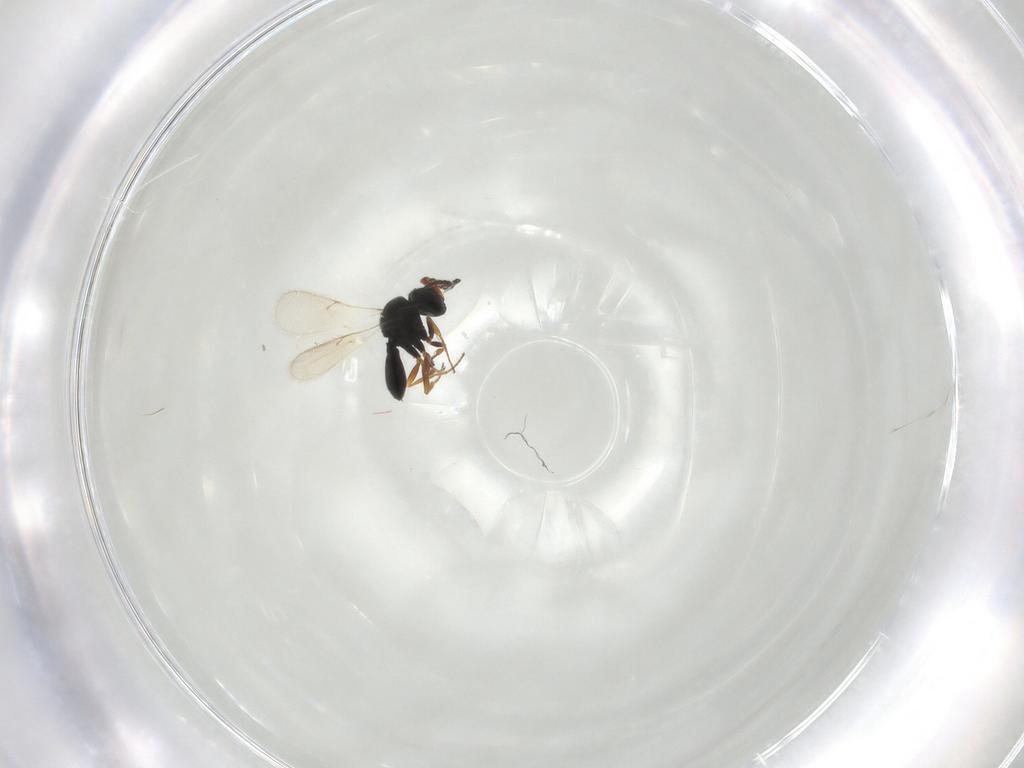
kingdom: Animalia
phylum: Arthropoda
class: Insecta
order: Hymenoptera
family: Scelionidae
